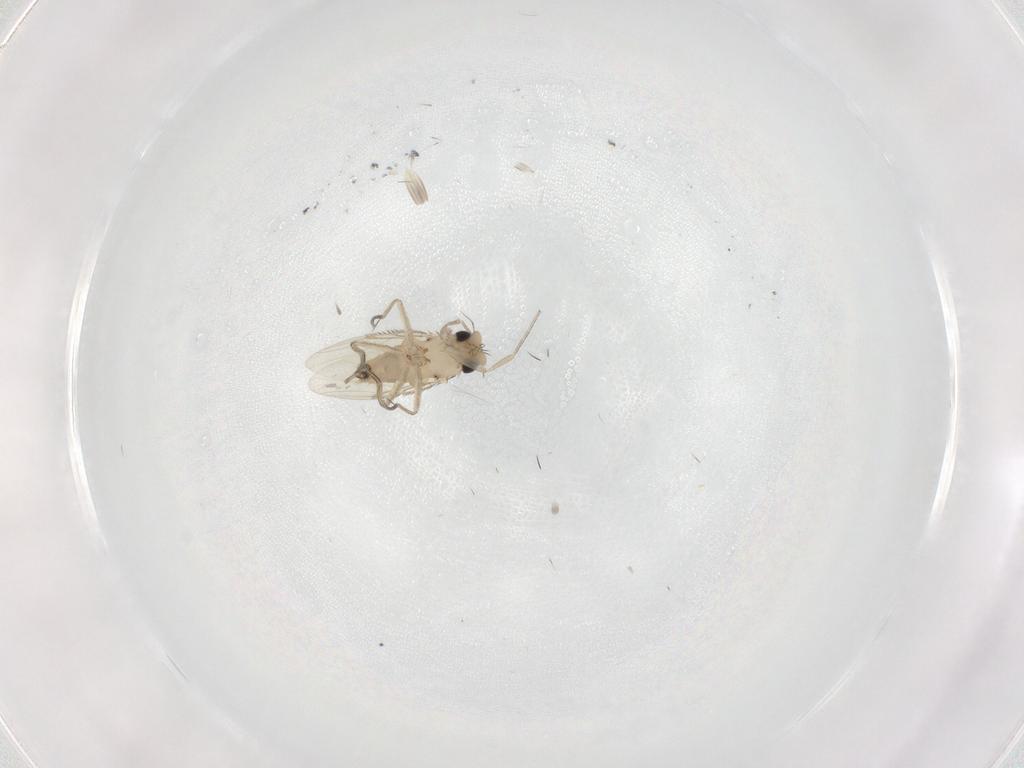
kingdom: Animalia
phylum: Arthropoda
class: Insecta
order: Diptera
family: Phoridae
